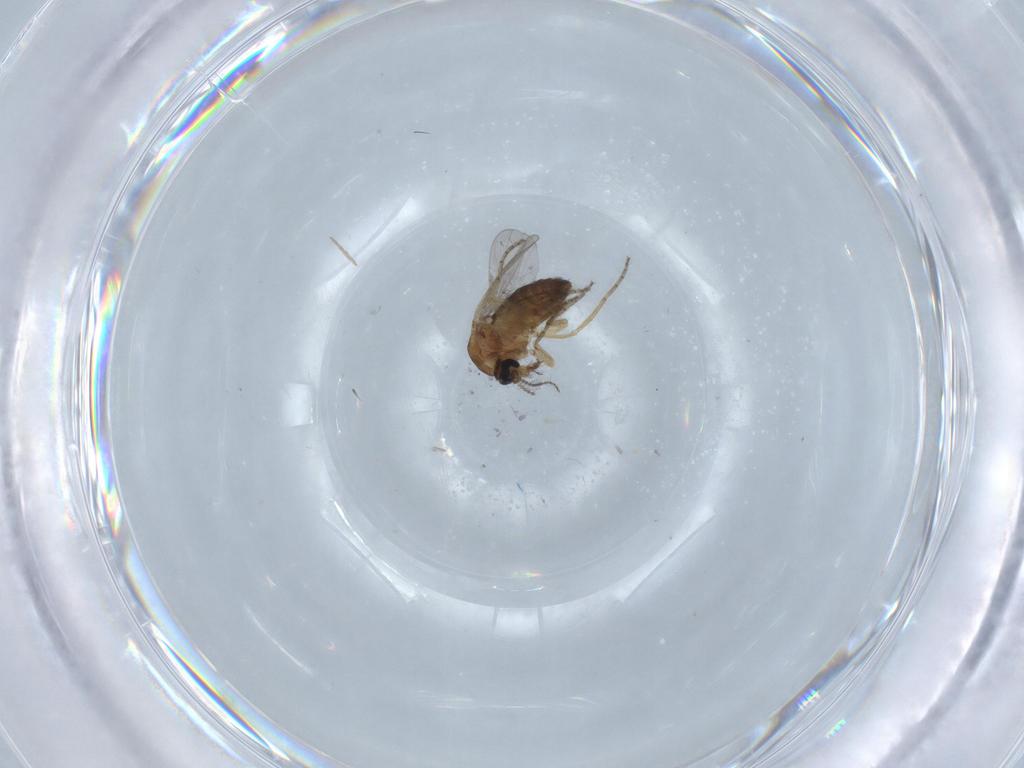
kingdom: Animalia
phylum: Arthropoda
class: Insecta
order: Diptera
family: Ceratopogonidae
